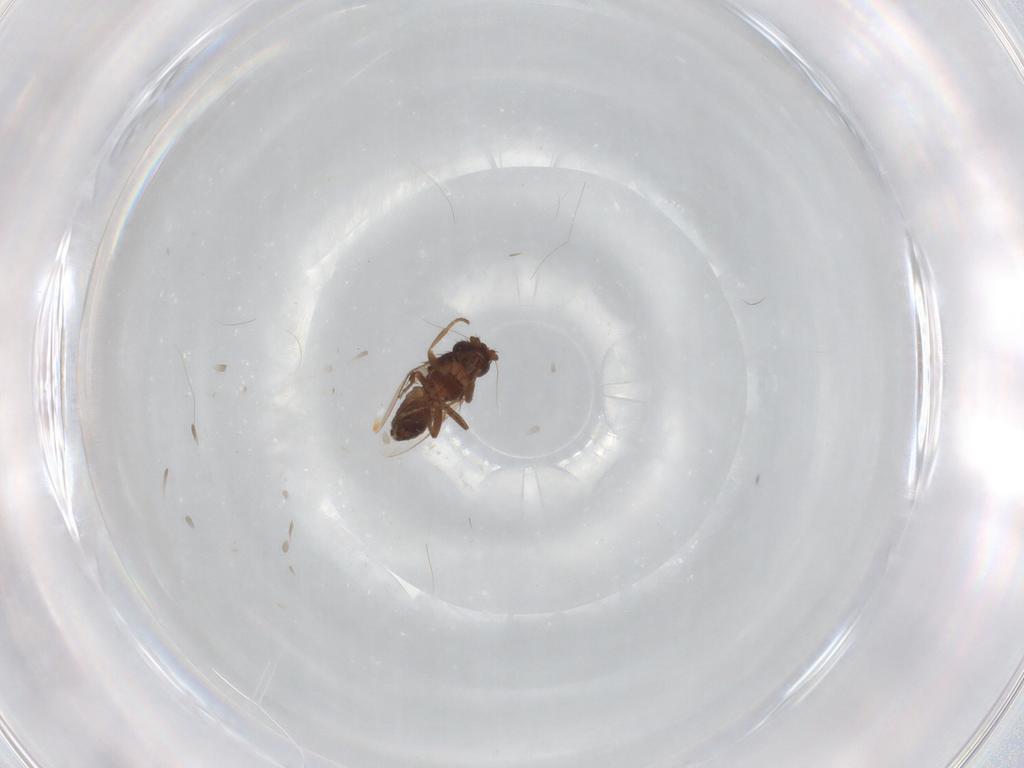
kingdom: Animalia
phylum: Arthropoda
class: Insecta
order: Diptera
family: Sphaeroceridae
